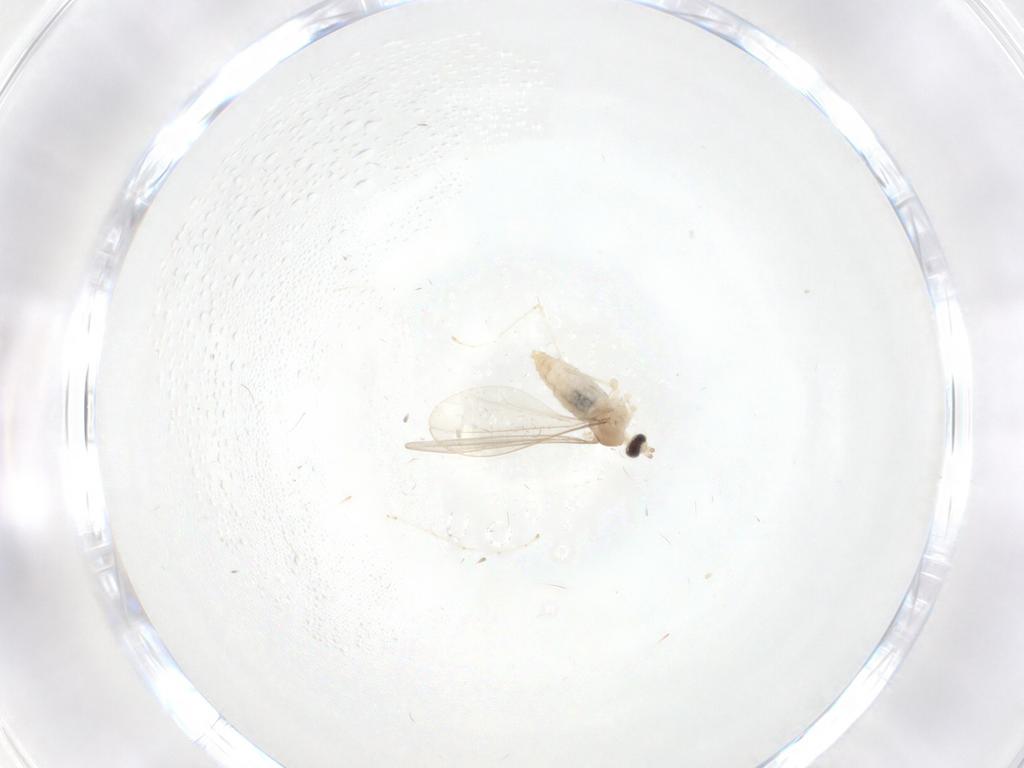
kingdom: Animalia
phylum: Arthropoda
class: Insecta
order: Diptera
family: Cecidomyiidae
